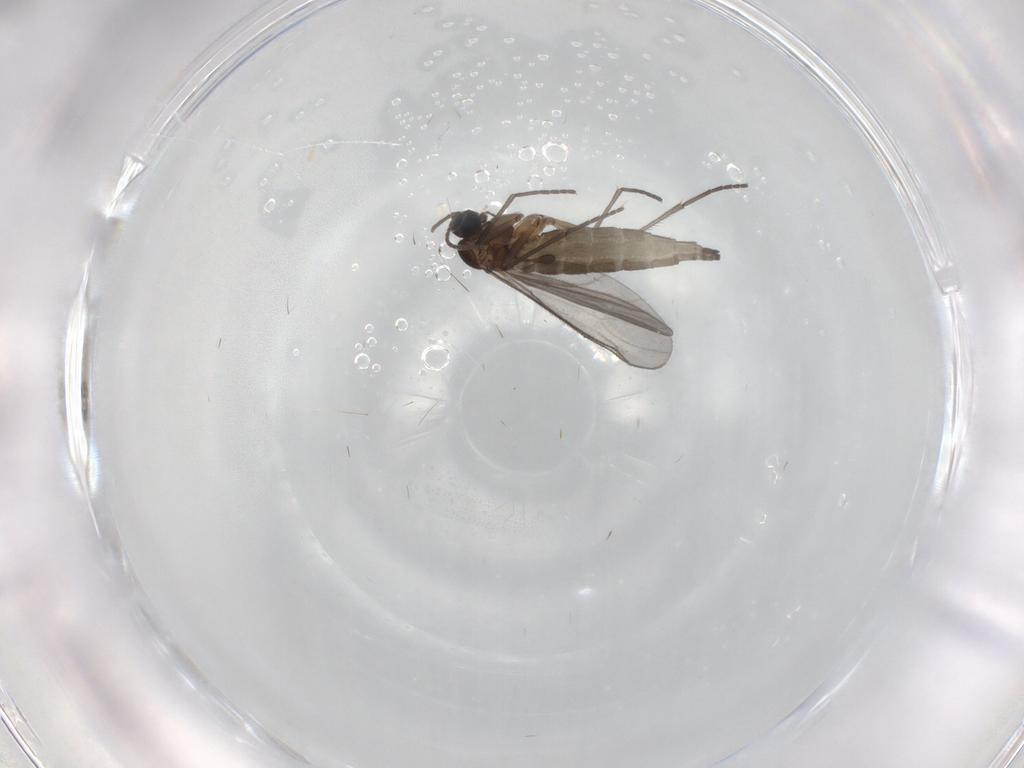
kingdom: Animalia
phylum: Arthropoda
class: Insecta
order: Diptera
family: Sciaridae
